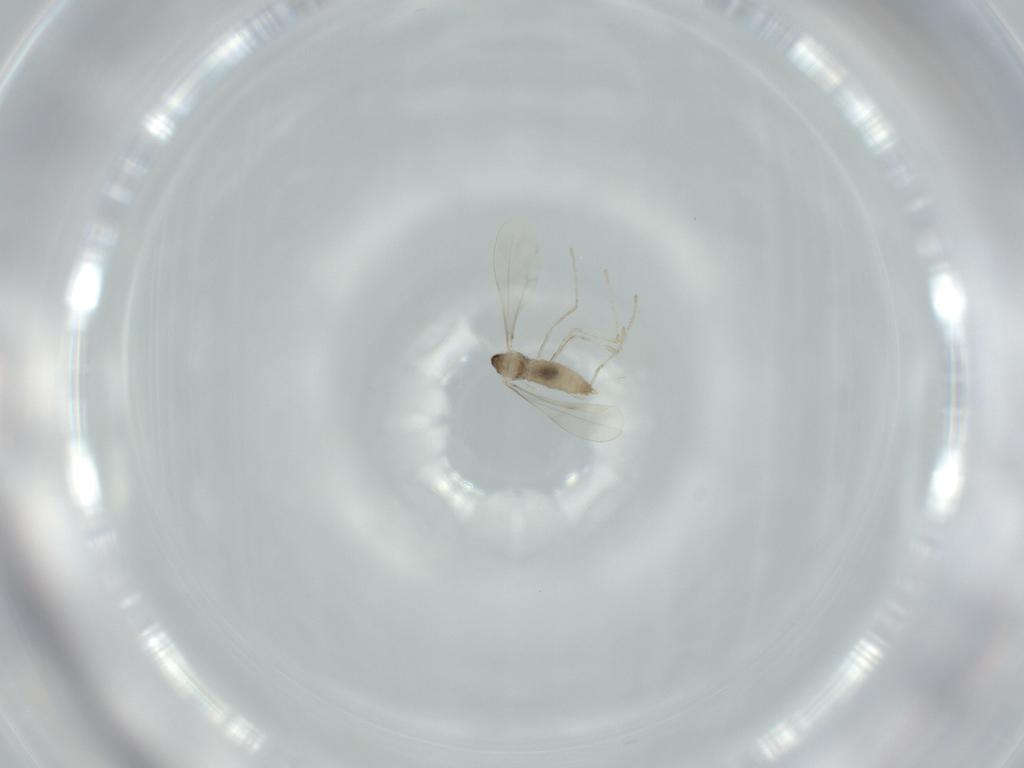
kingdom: Animalia
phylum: Arthropoda
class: Insecta
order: Diptera
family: Cecidomyiidae
